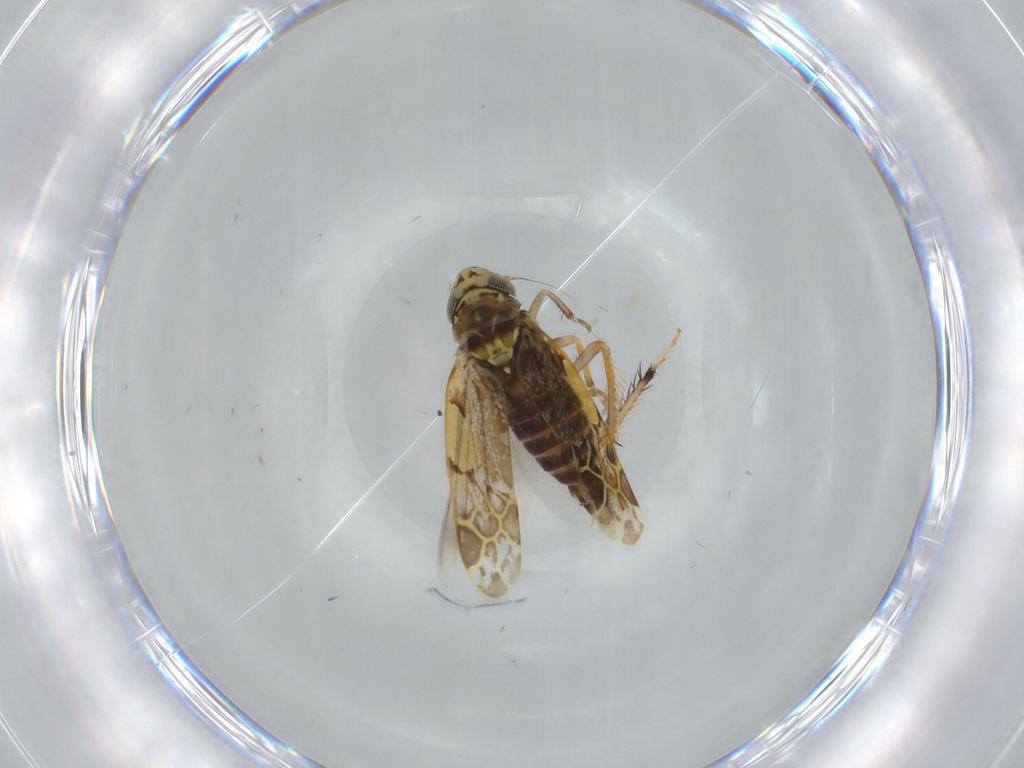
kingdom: Animalia
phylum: Arthropoda
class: Insecta
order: Hemiptera
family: Cicadellidae
